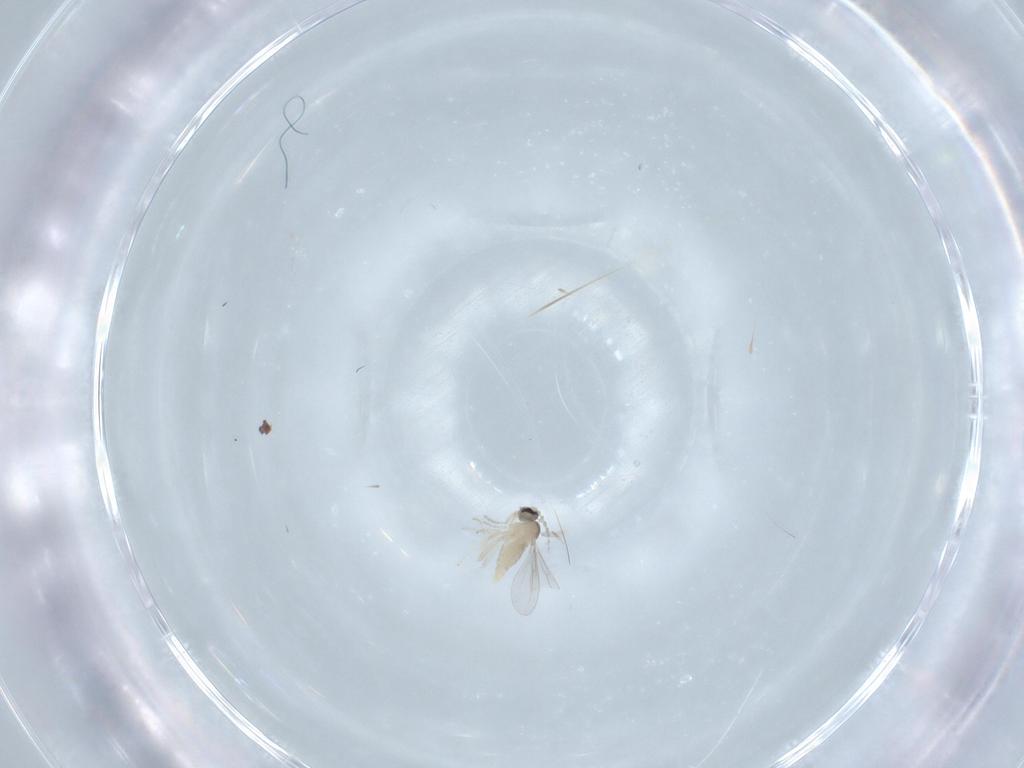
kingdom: Animalia
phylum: Arthropoda
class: Insecta
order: Diptera
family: Cecidomyiidae
